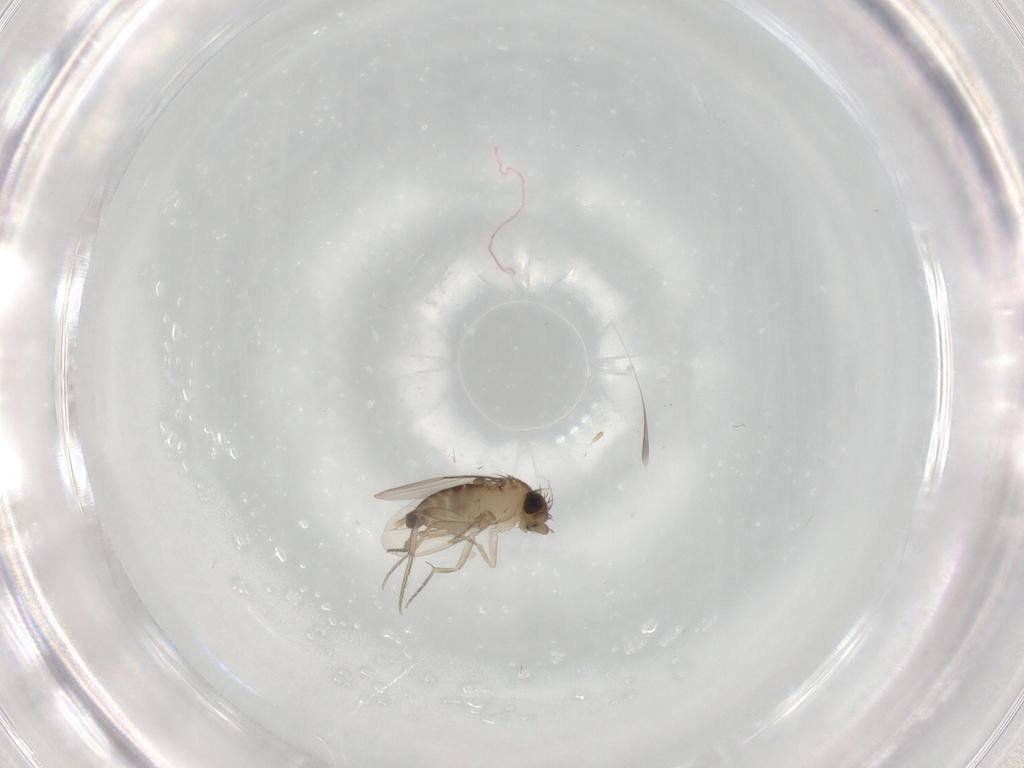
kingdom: Animalia
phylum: Arthropoda
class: Insecta
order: Diptera
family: Phoridae
